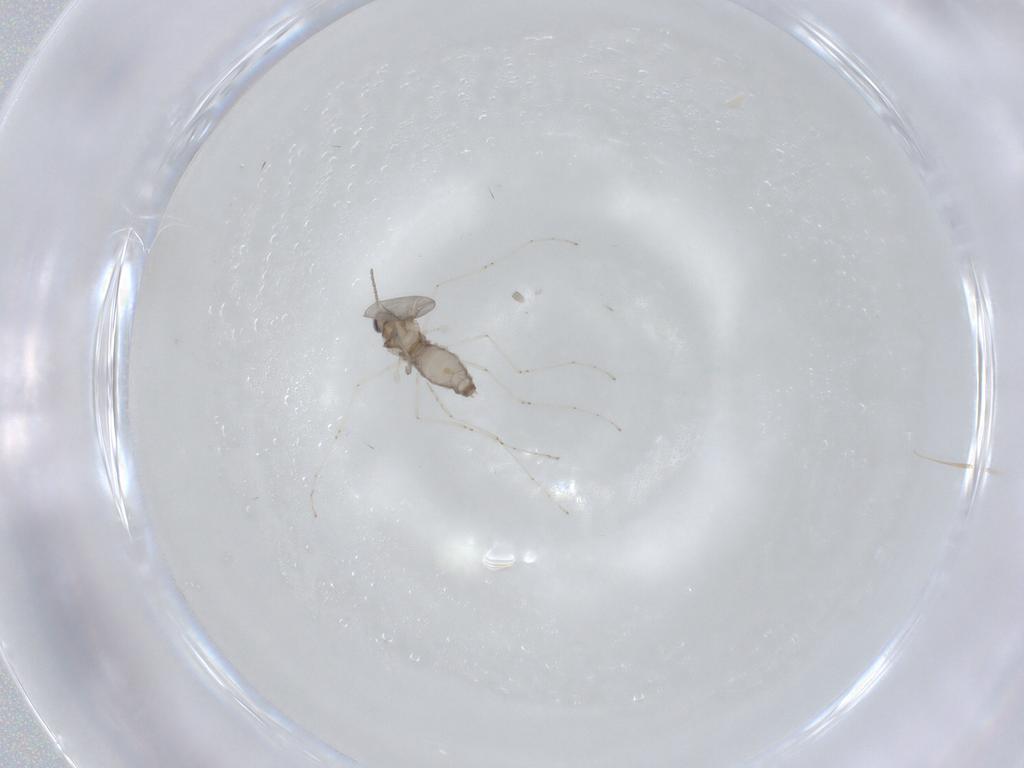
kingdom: Animalia
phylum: Arthropoda
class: Insecta
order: Diptera
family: Cecidomyiidae
